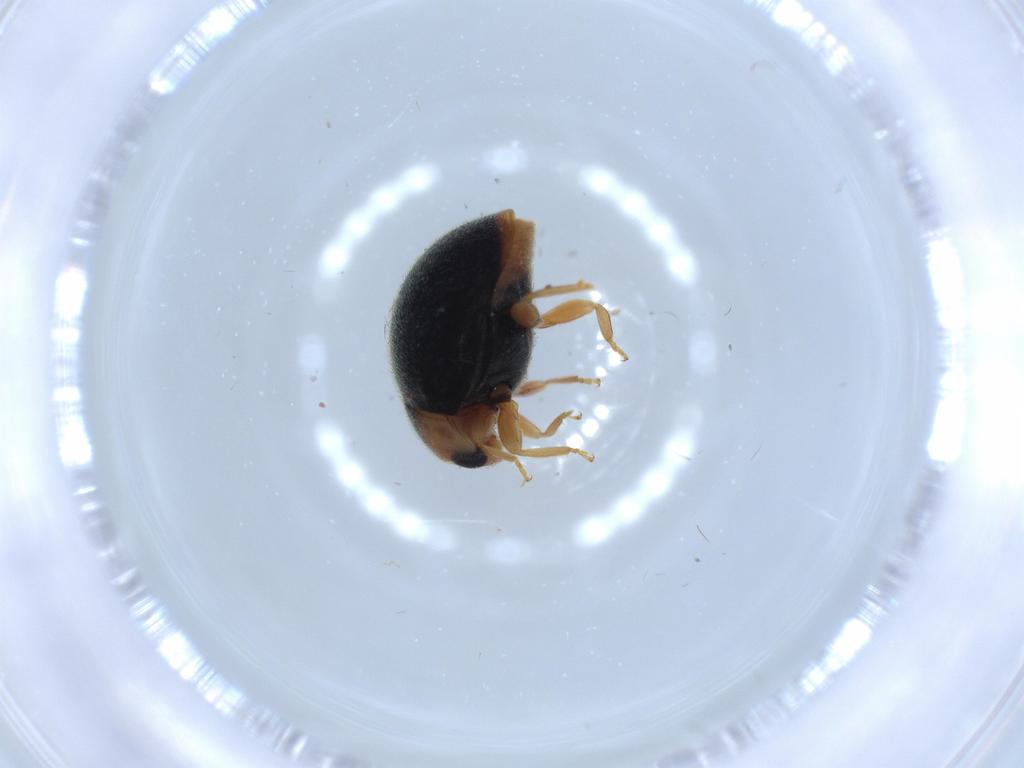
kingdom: Animalia
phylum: Arthropoda
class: Insecta
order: Coleoptera
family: Coccinellidae
